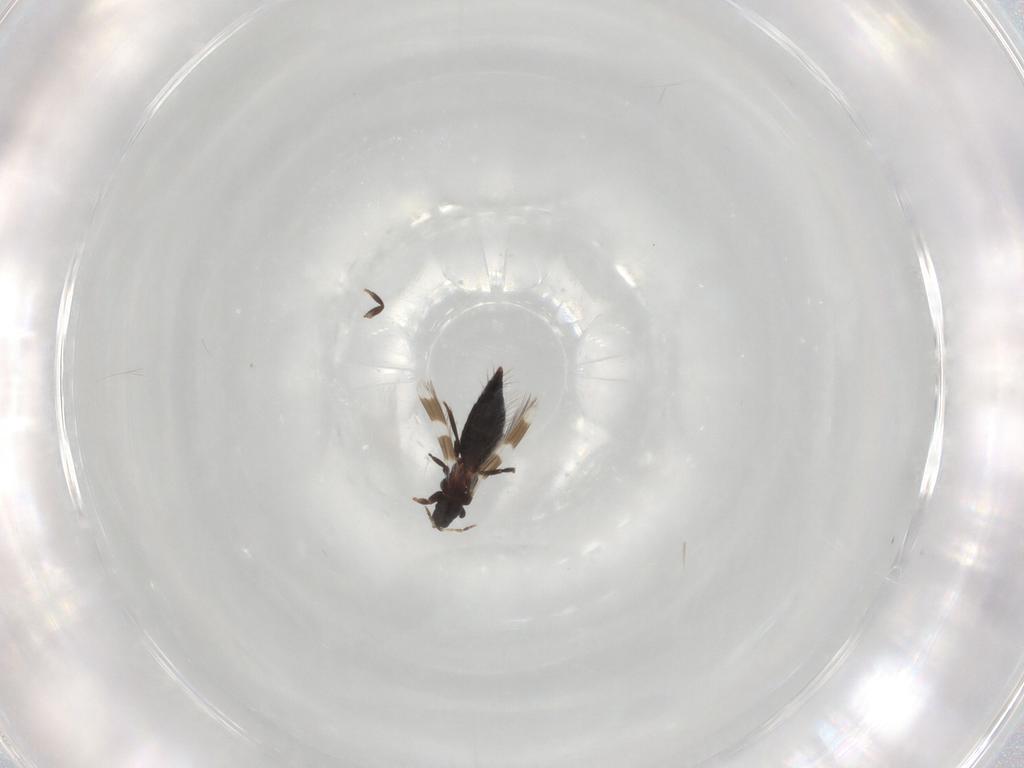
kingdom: Animalia
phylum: Arthropoda
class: Insecta
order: Thysanoptera
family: Aeolothripidae
